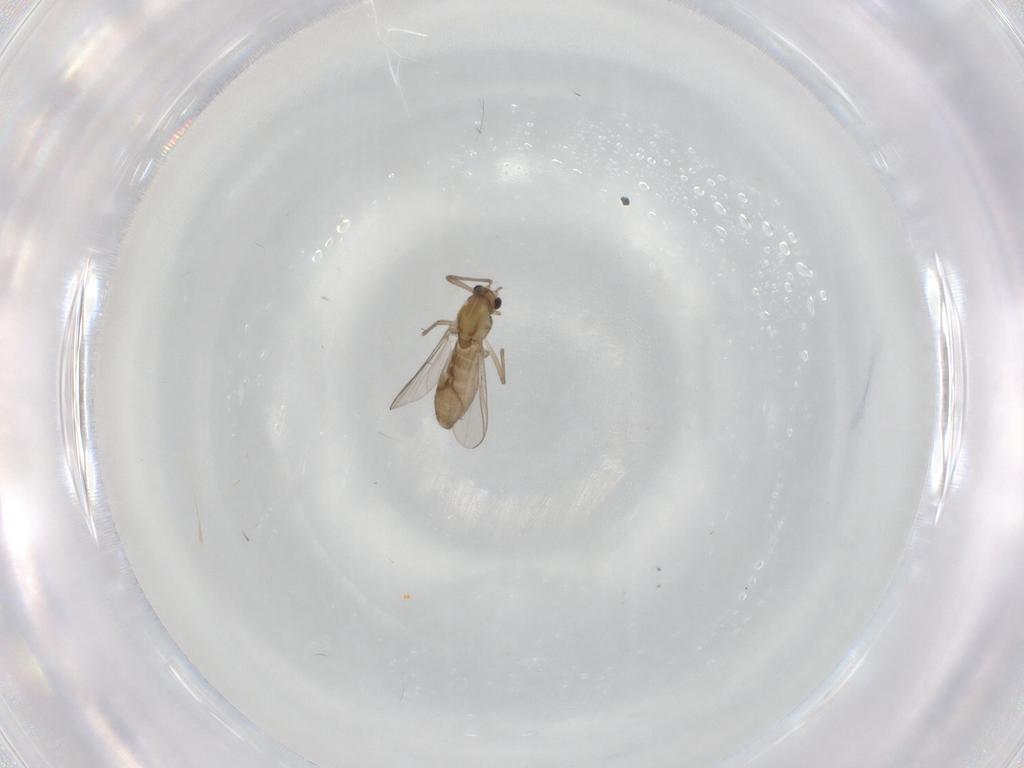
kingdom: Animalia
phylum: Arthropoda
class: Insecta
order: Diptera
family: Chironomidae
